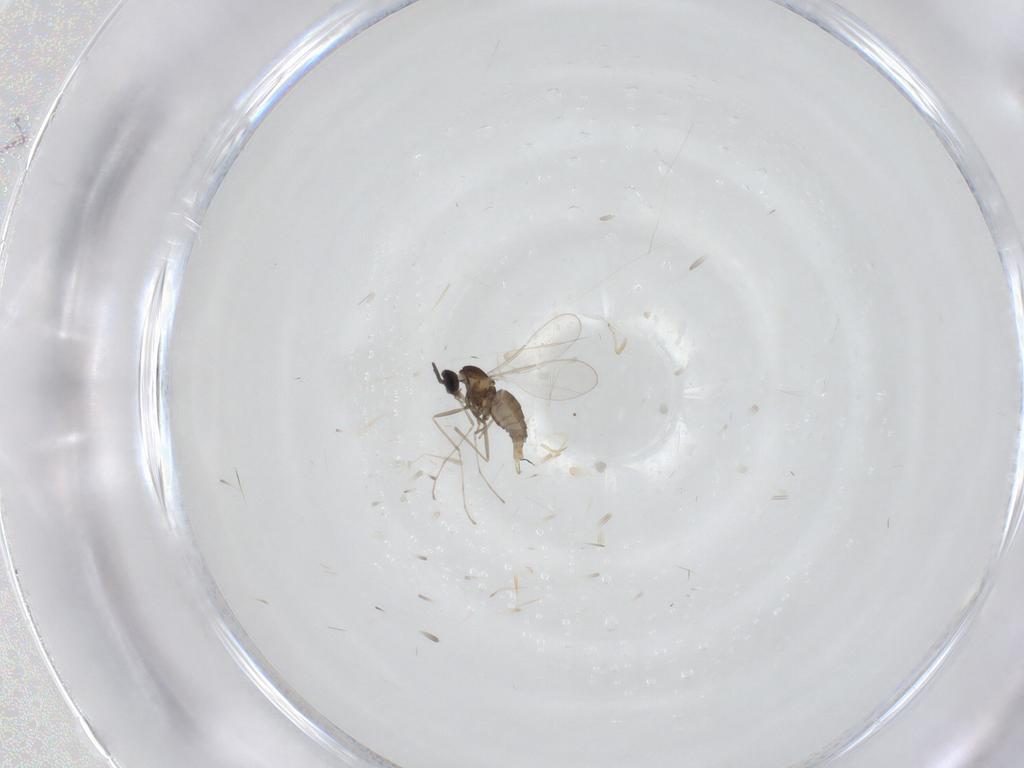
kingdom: Animalia
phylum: Arthropoda
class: Insecta
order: Diptera
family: Cecidomyiidae
